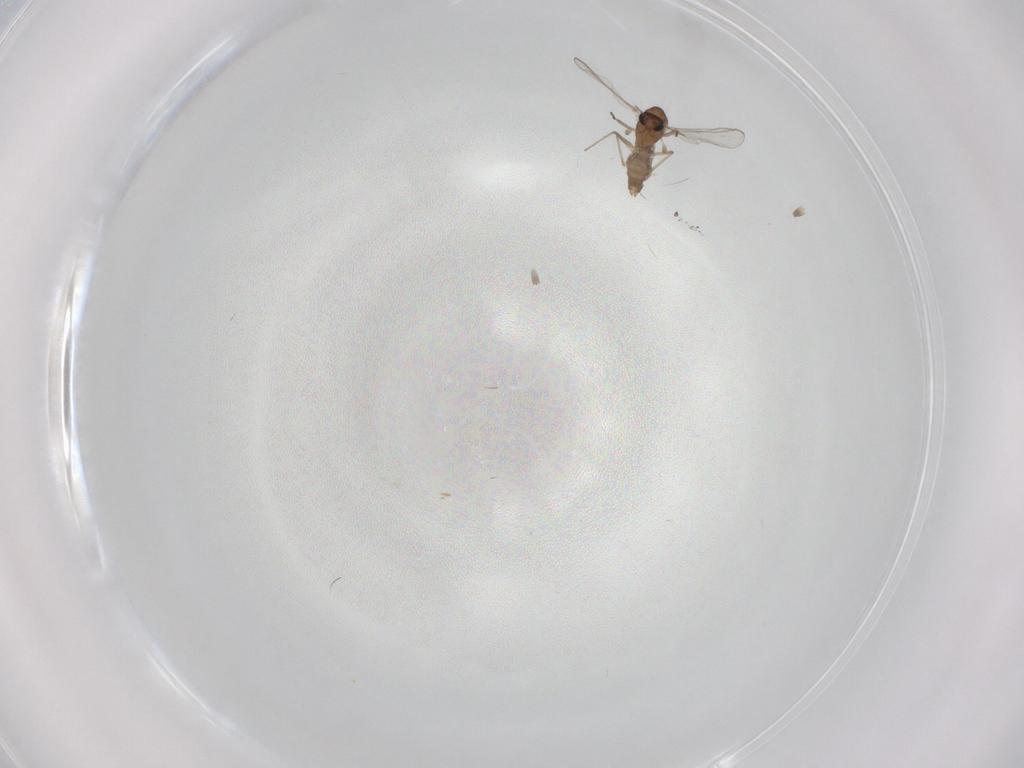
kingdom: Animalia
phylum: Arthropoda
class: Insecta
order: Diptera
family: Chironomidae
